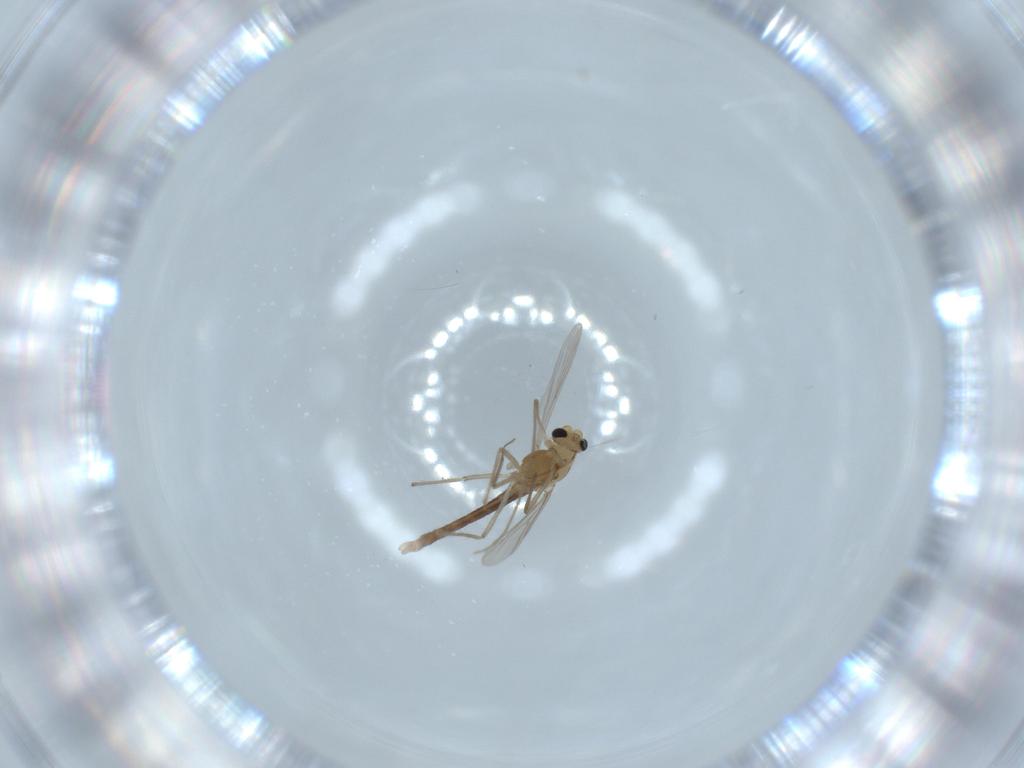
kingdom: Animalia
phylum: Arthropoda
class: Insecta
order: Diptera
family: Chironomidae
